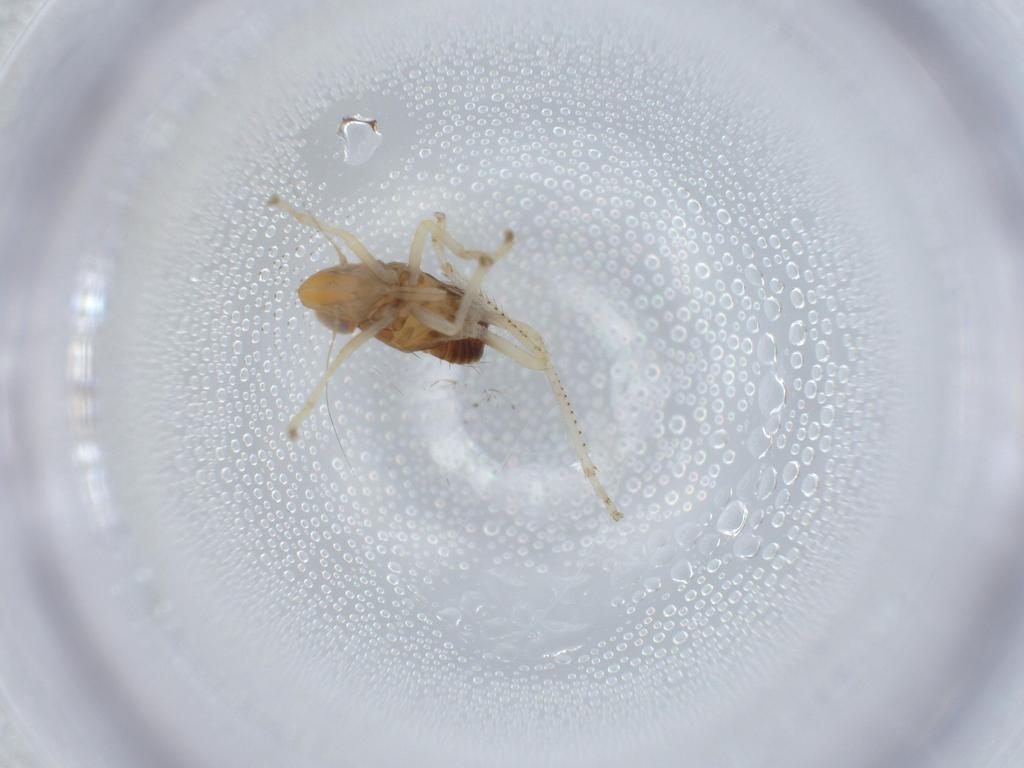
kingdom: Animalia
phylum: Arthropoda
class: Insecta
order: Hemiptera
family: Cicadellidae
